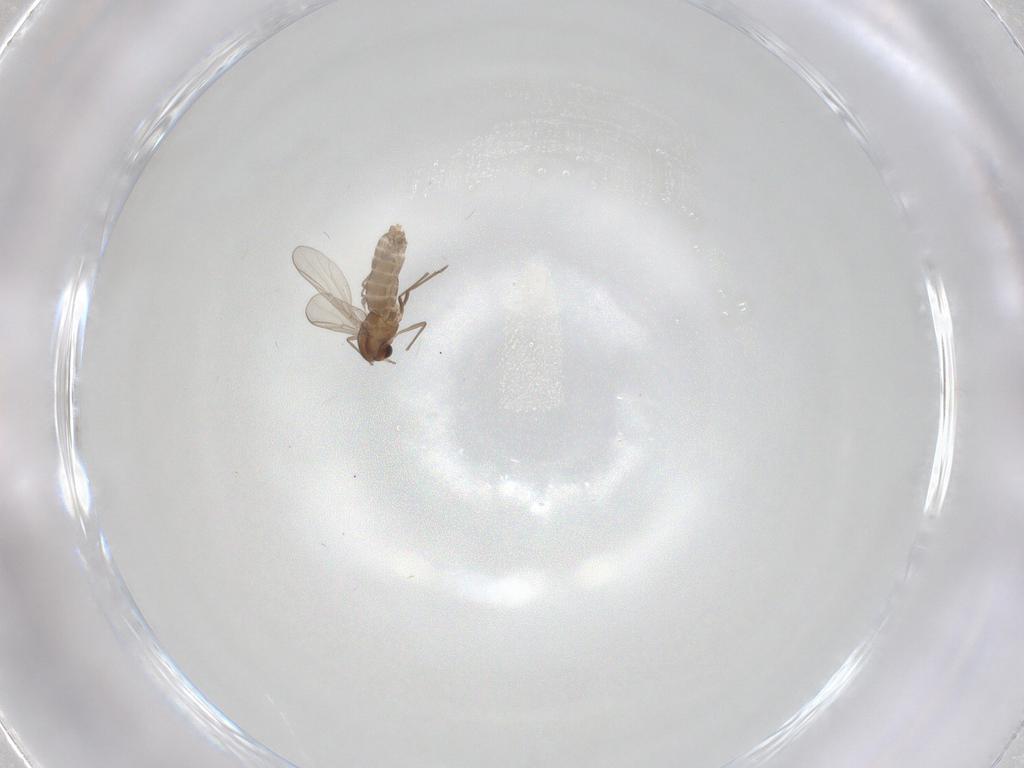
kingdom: Animalia
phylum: Arthropoda
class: Insecta
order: Diptera
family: Chironomidae
